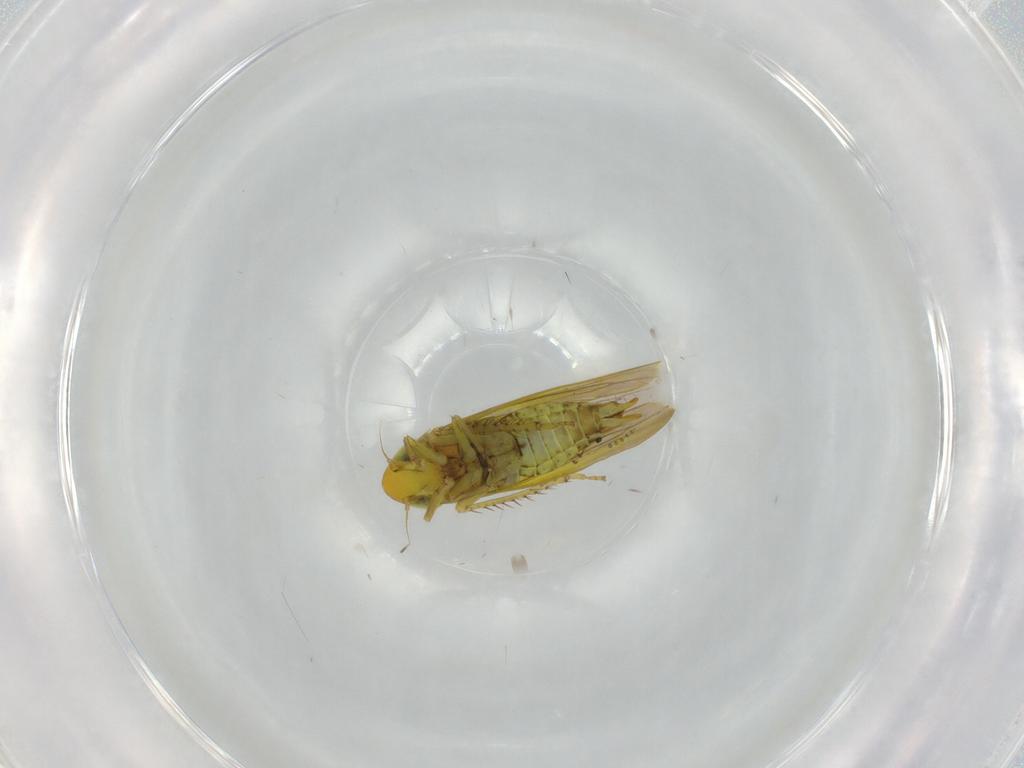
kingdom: Animalia
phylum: Arthropoda
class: Insecta
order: Hemiptera
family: Cicadellidae
